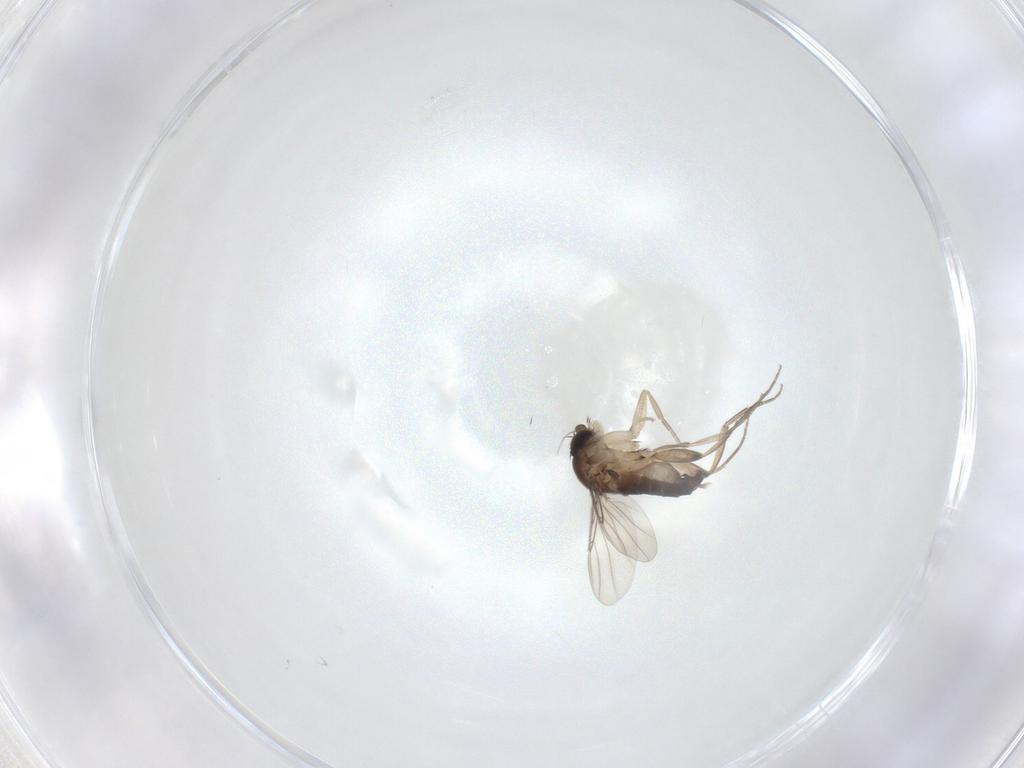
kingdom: Animalia
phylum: Arthropoda
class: Insecta
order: Diptera
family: Phoridae
